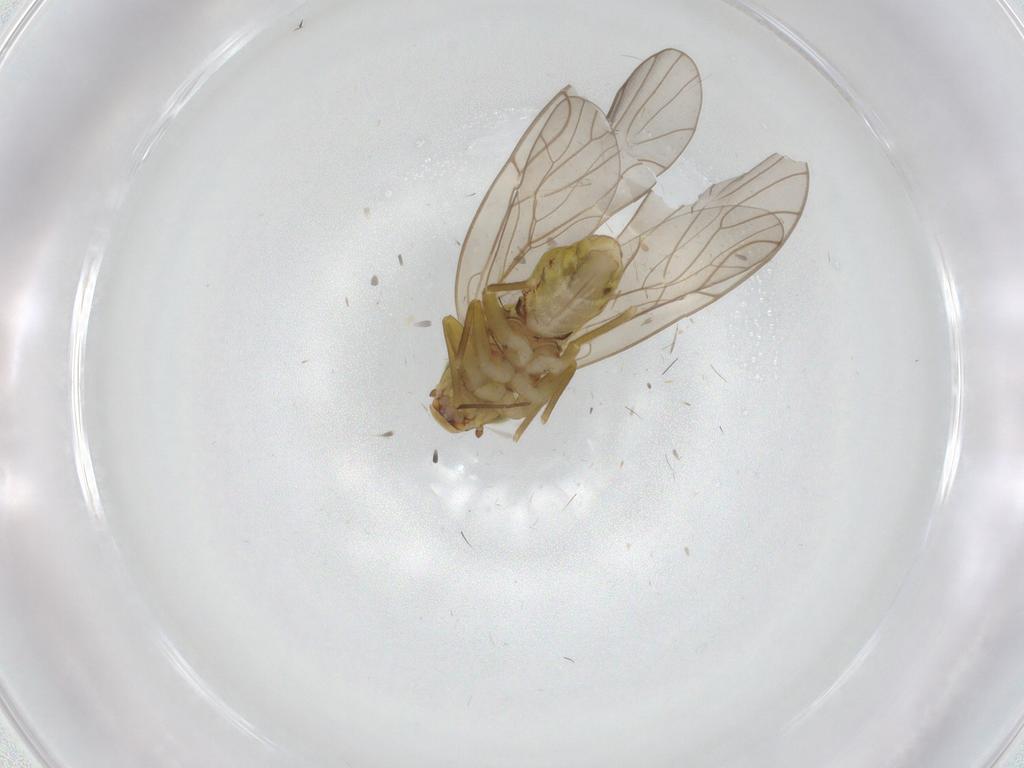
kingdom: Animalia
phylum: Arthropoda
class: Insecta
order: Psocodea
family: Philotarsidae
